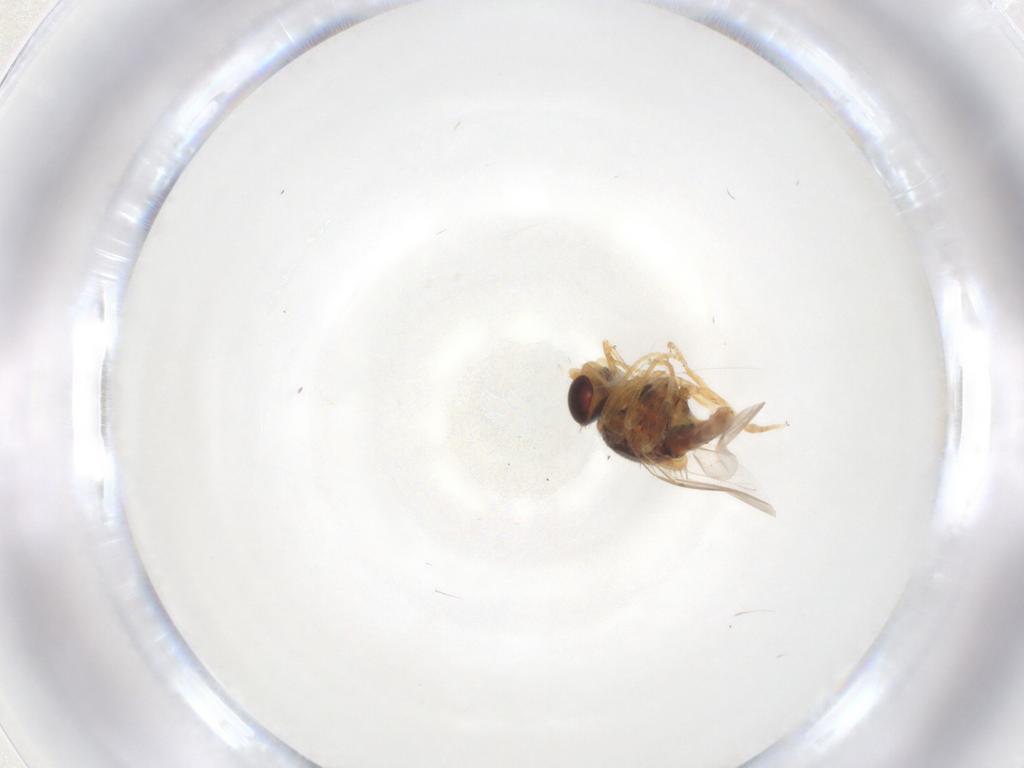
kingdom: Animalia
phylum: Arthropoda
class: Insecta
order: Diptera
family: Chloropidae
